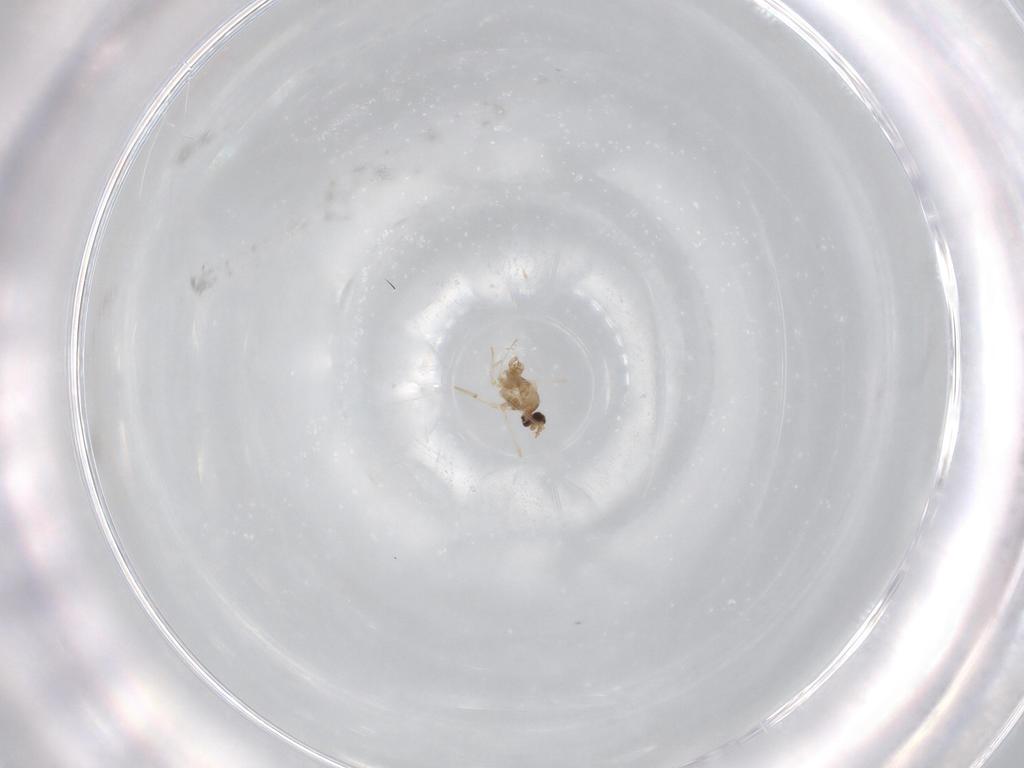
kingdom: Animalia
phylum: Arthropoda
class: Insecta
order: Diptera
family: Cecidomyiidae
